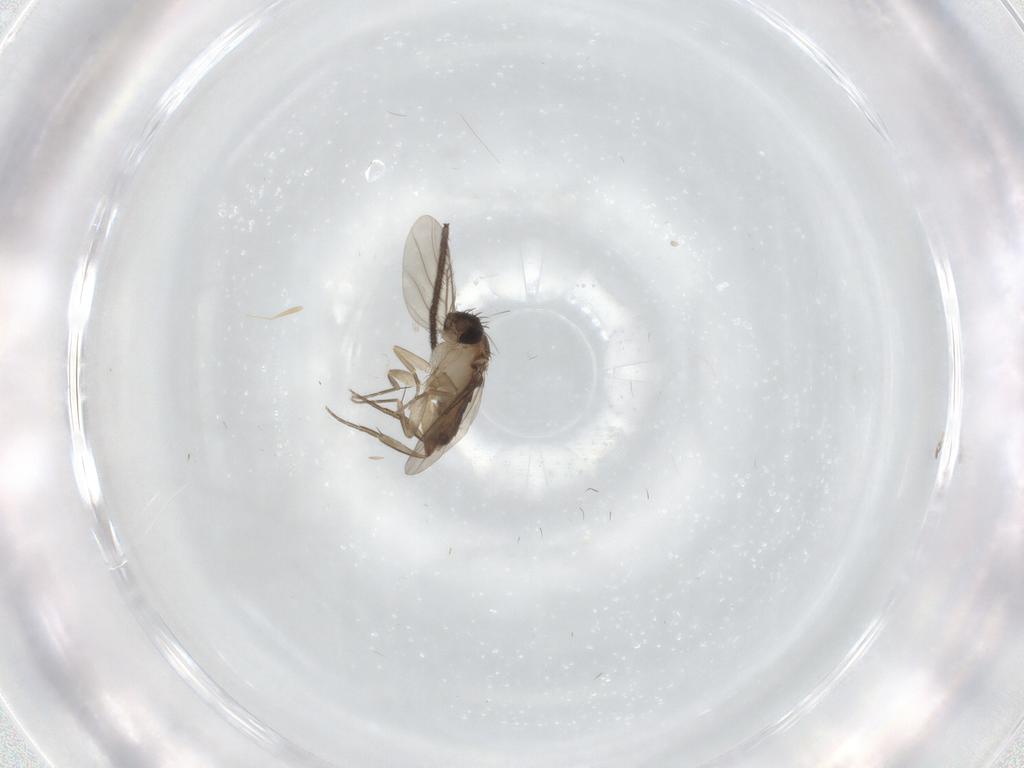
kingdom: Animalia
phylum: Arthropoda
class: Insecta
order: Diptera
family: Phoridae
